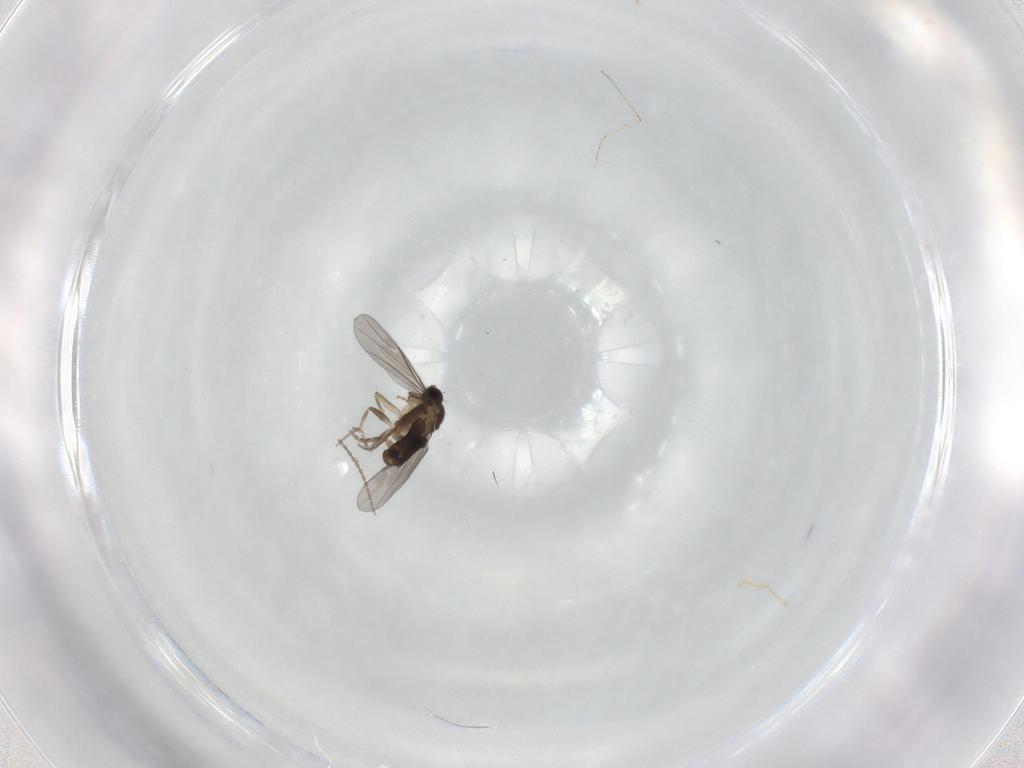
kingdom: Animalia
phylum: Arthropoda
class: Insecta
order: Diptera
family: Cecidomyiidae
